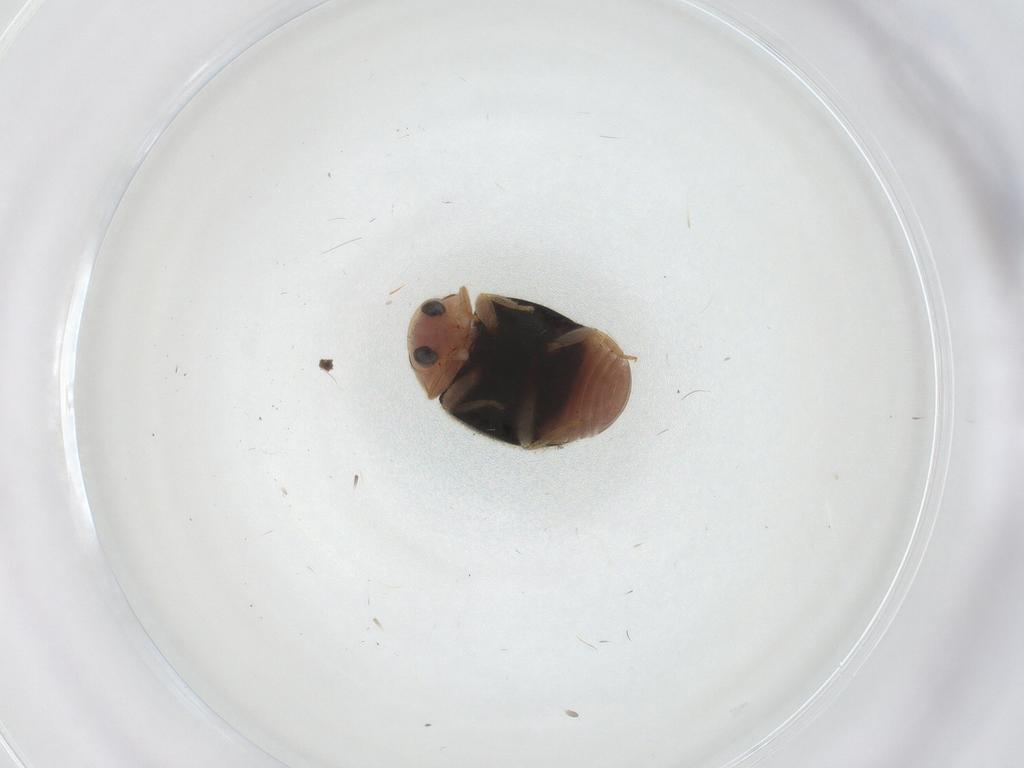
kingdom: Animalia
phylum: Arthropoda
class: Insecta
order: Coleoptera
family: Coccinellidae
